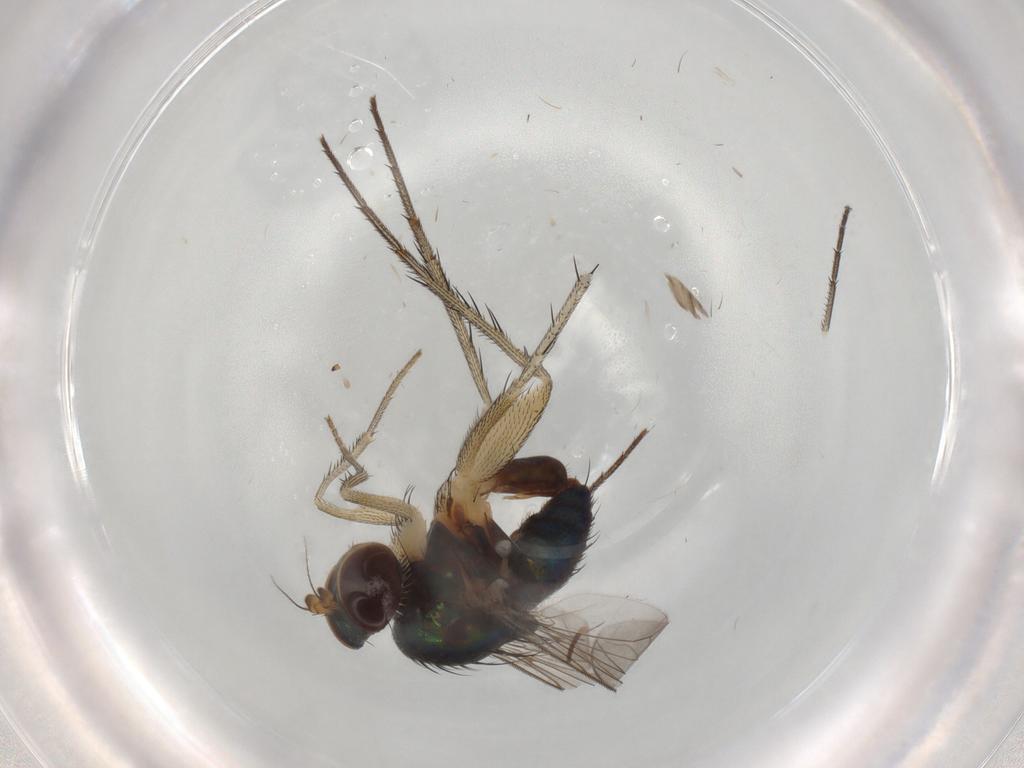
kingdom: Animalia
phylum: Arthropoda
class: Insecta
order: Diptera
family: Dolichopodidae
